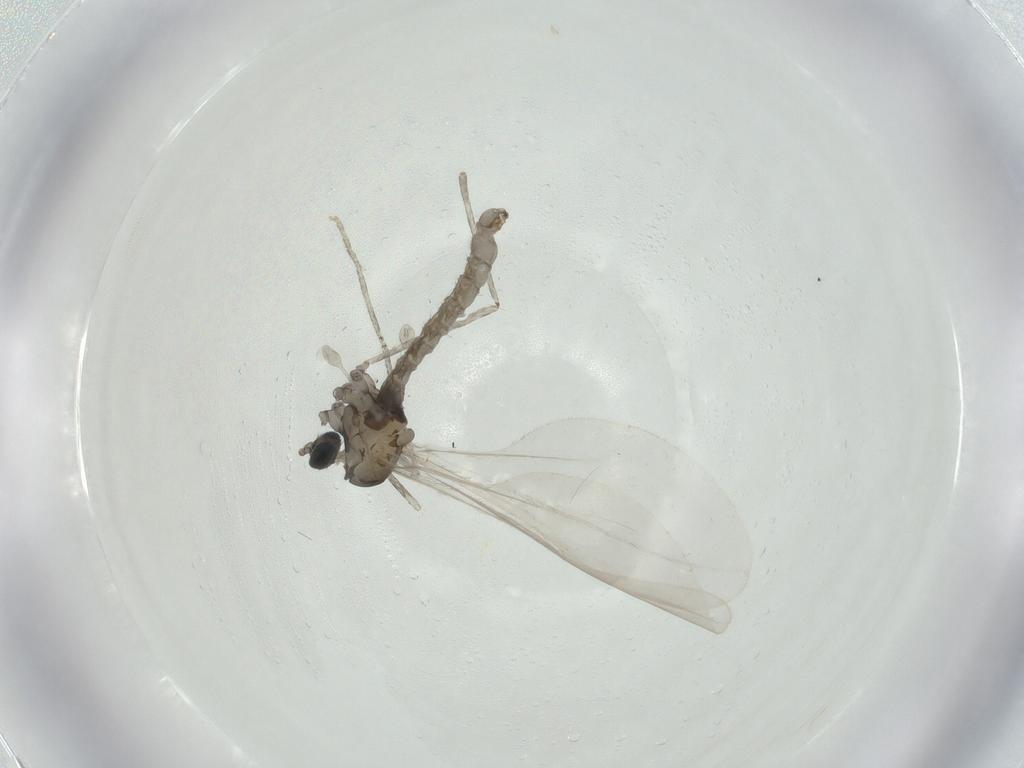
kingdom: Animalia
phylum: Arthropoda
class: Insecta
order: Diptera
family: Cecidomyiidae
